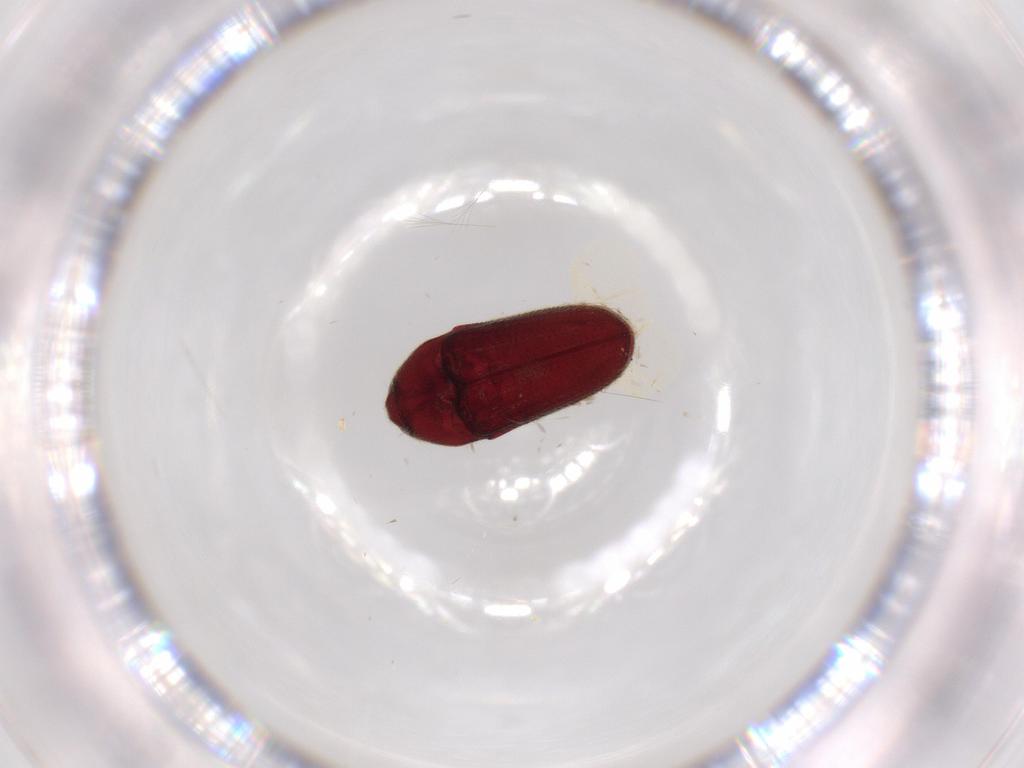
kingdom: Animalia
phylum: Arthropoda
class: Insecta
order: Coleoptera
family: Throscidae
